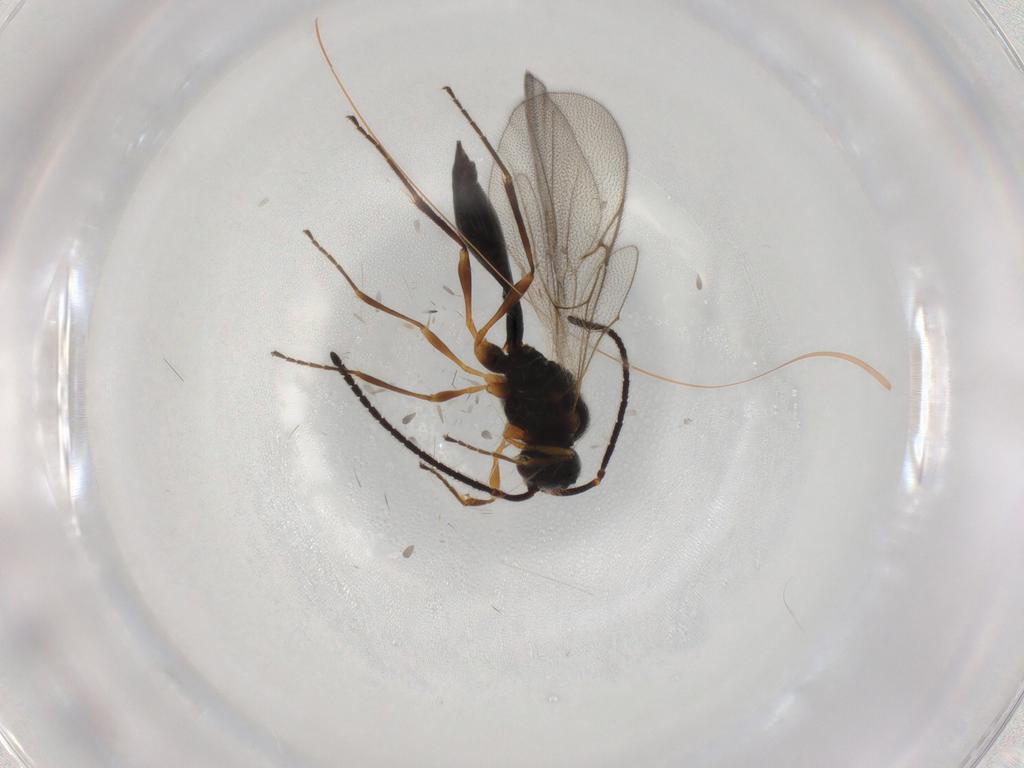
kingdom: Animalia
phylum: Arthropoda
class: Insecta
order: Hymenoptera
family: Diapriidae
